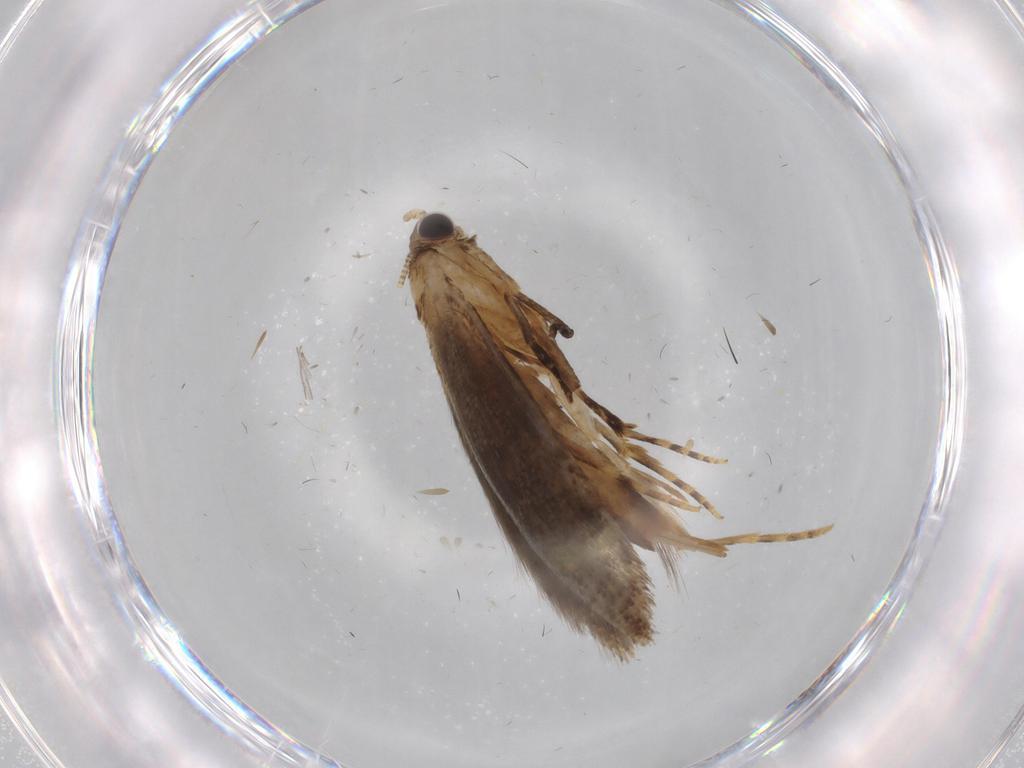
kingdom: Animalia
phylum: Arthropoda
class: Insecta
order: Lepidoptera
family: Tineidae
